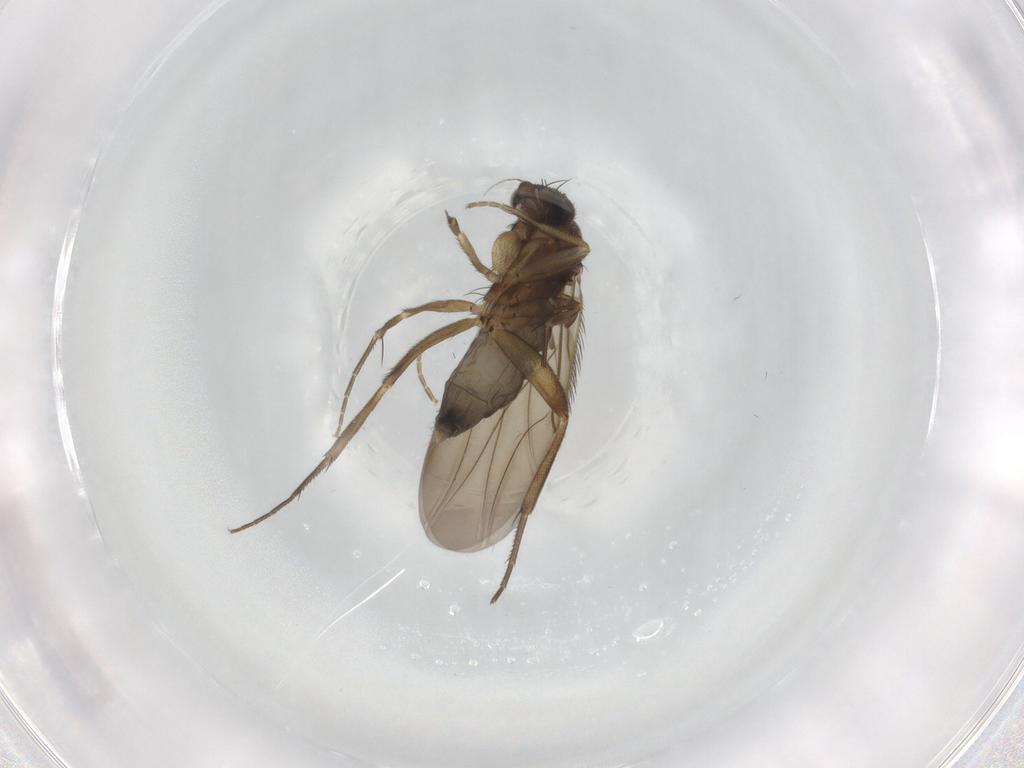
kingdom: Animalia
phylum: Arthropoda
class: Insecta
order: Diptera
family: Phoridae
